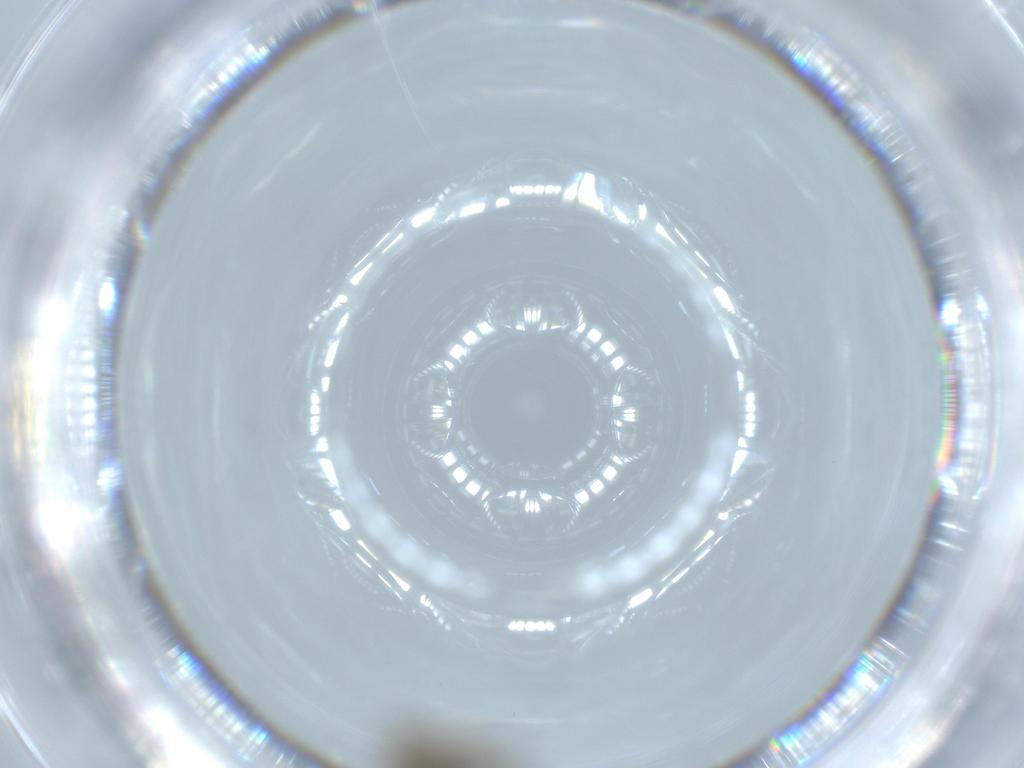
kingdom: Animalia
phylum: Arthropoda
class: Insecta
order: Diptera
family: Cecidomyiidae
